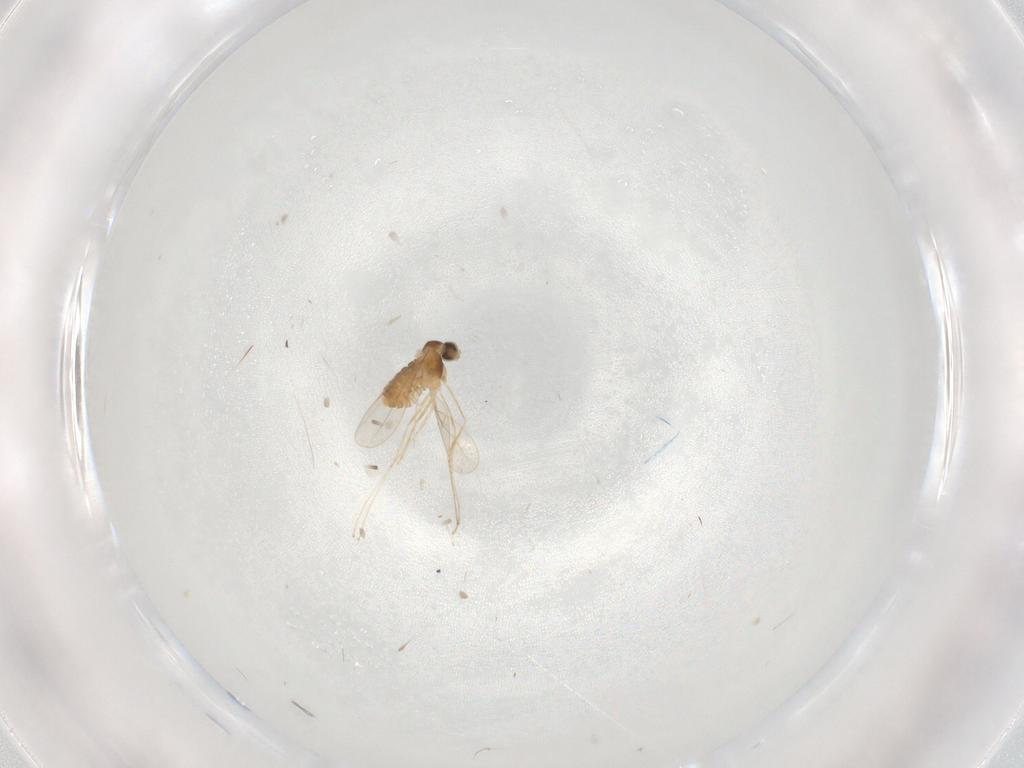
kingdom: Animalia
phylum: Arthropoda
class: Insecta
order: Diptera
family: Cecidomyiidae
